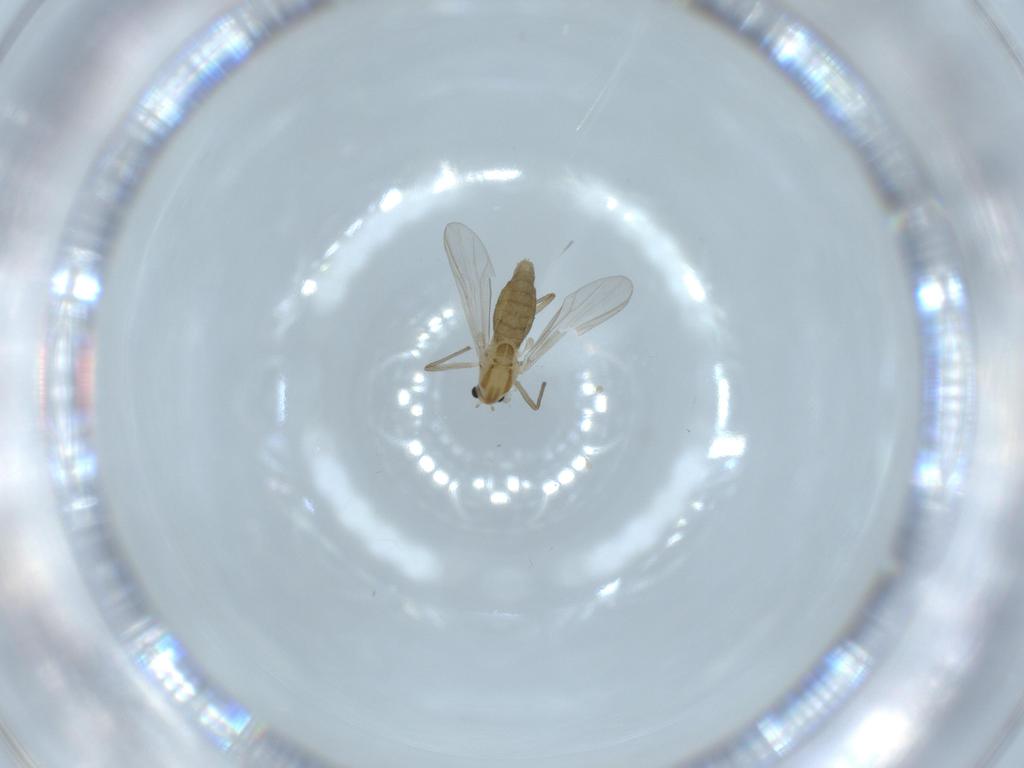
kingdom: Animalia
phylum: Arthropoda
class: Insecta
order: Diptera
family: Chironomidae
